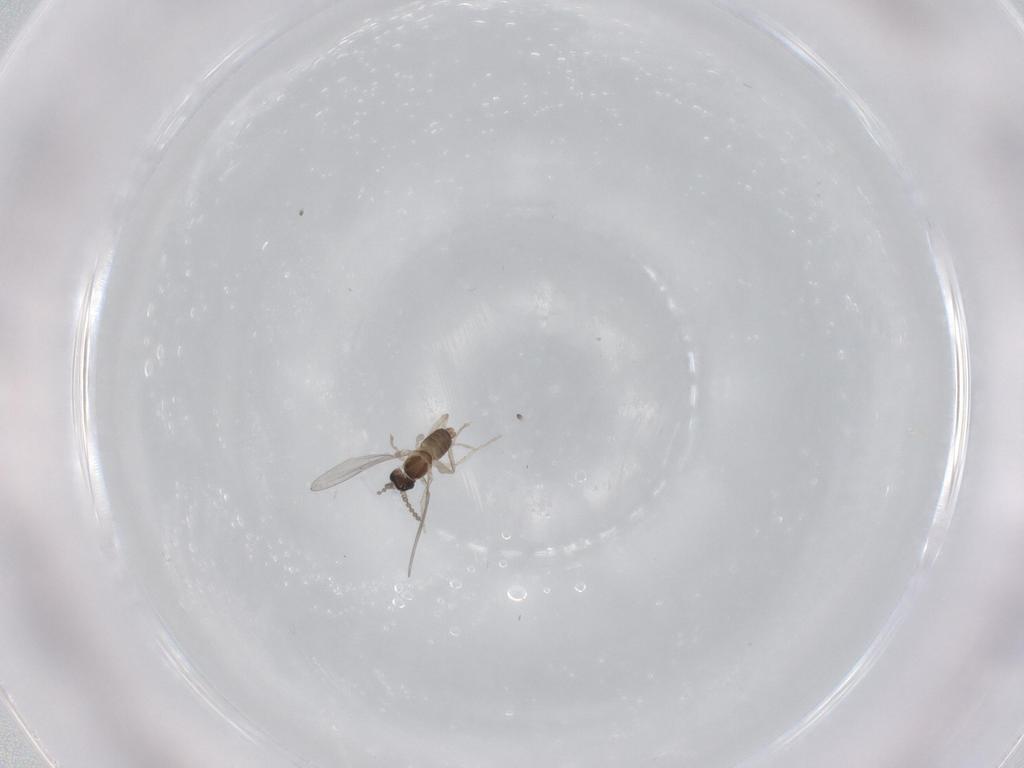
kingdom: Animalia
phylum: Arthropoda
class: Insecta
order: Diptera
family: Cecidomyiidae
